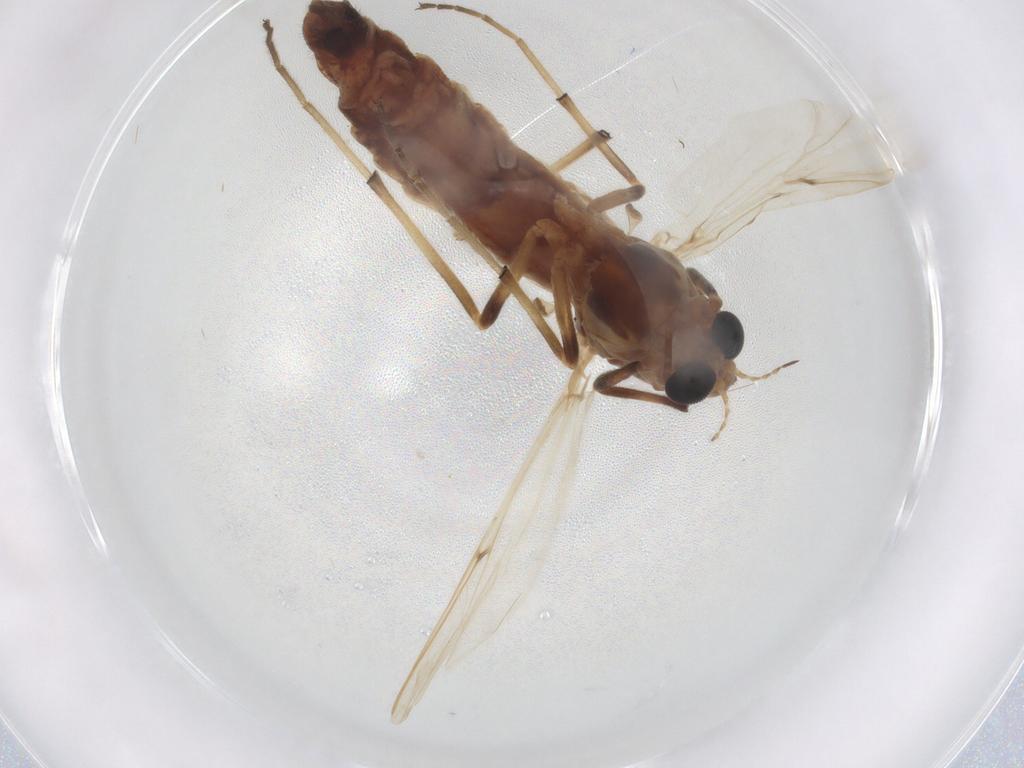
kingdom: Animalia
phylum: Arthropoda
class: Insecta
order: Diptera
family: Chironomidae
